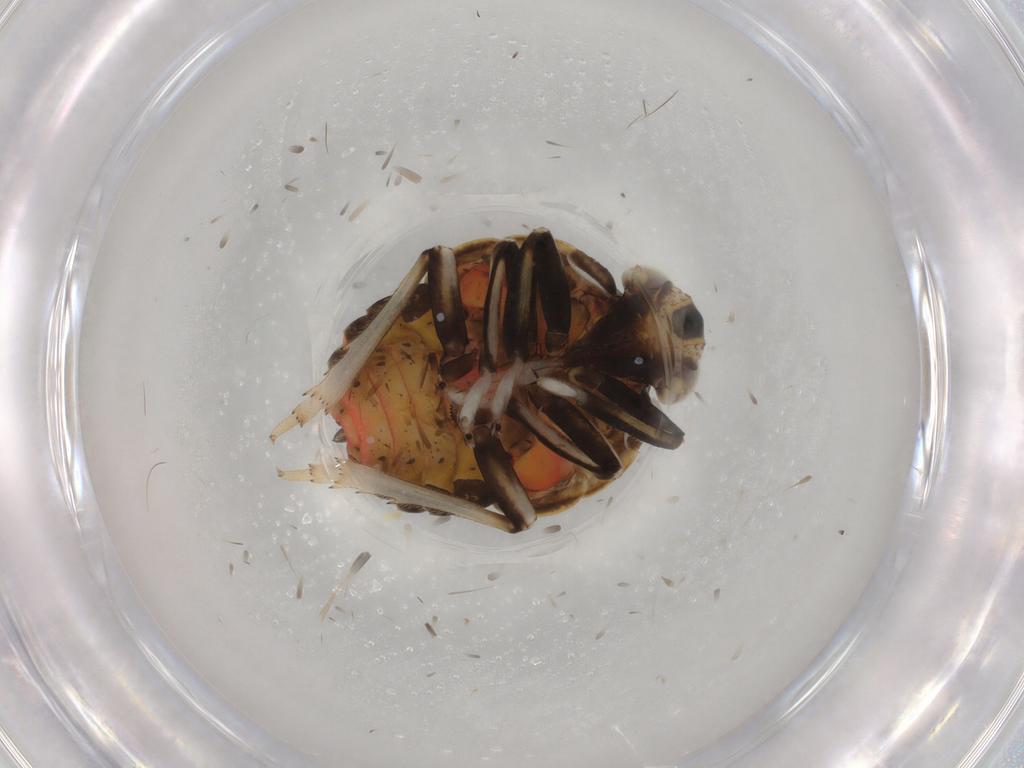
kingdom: Animalia
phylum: Arthropoda
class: Insecta
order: Hemiptera
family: Issidae
